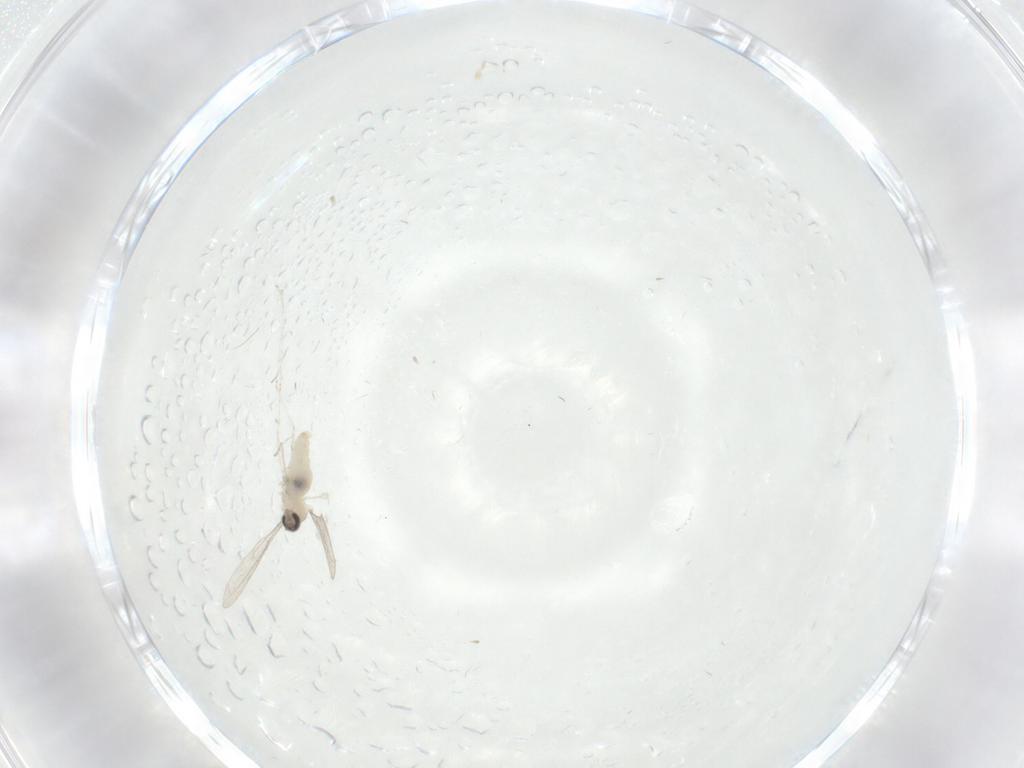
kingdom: Animalia
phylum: Arthropoda
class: Insecta
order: Diptera
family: Cecidomyiidae
